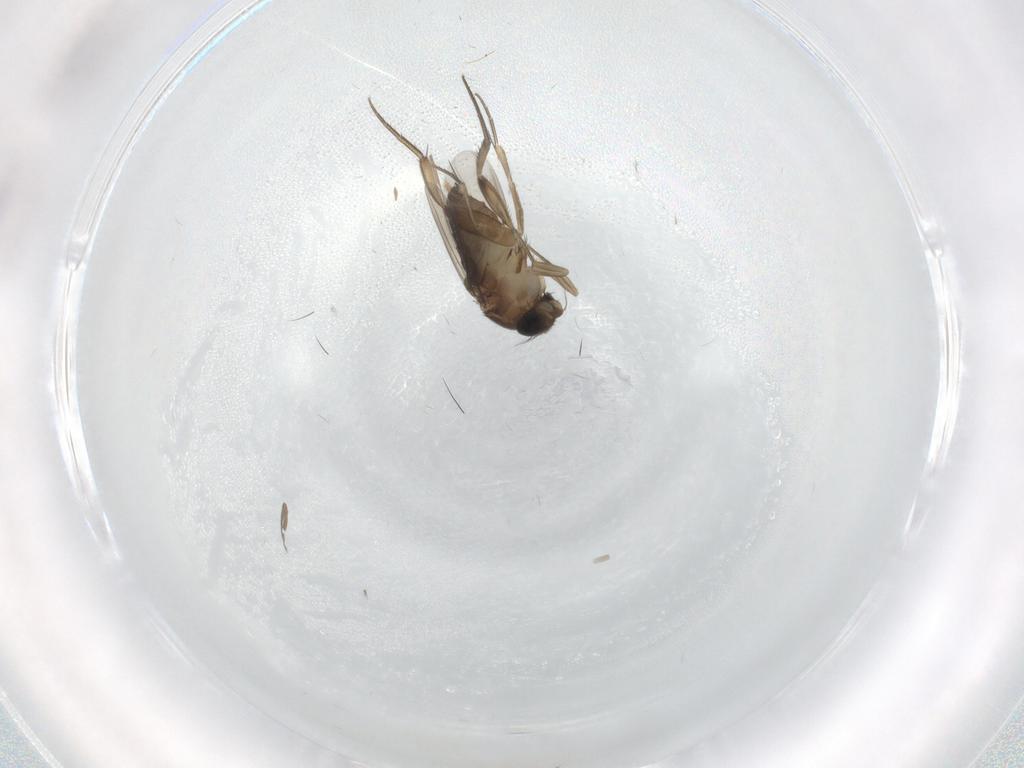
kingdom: Animalia
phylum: Arthropoda
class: Insecta
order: Diptera
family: Phoridae
